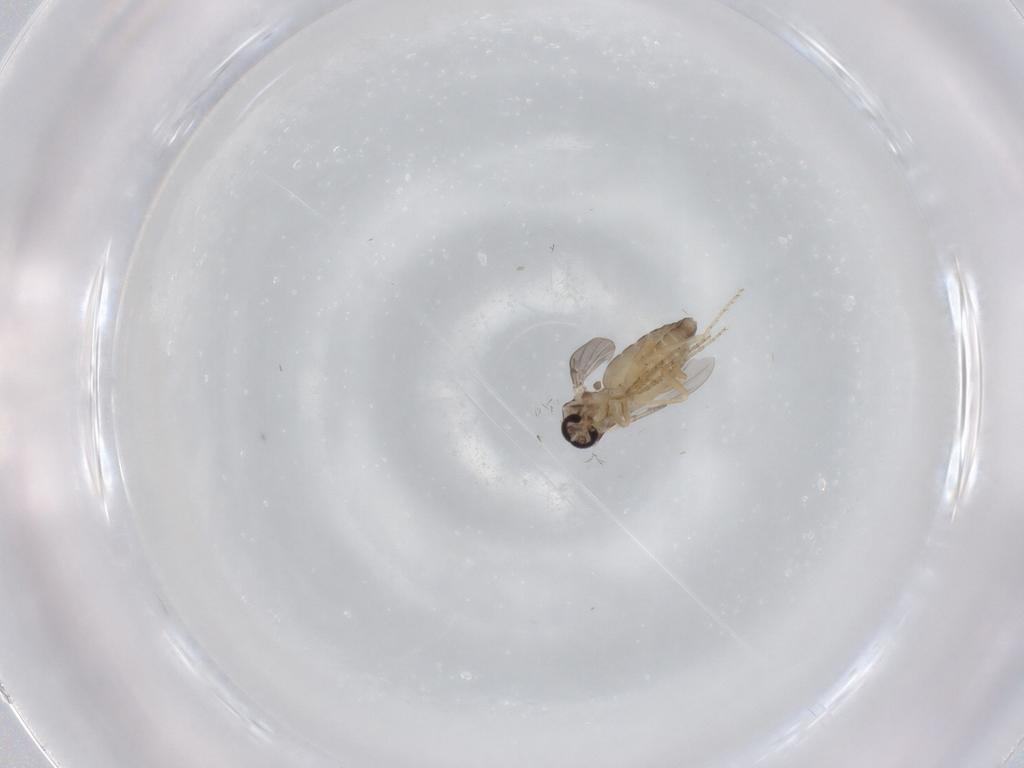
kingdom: Animalia
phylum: Arthropoda
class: Insecta
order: Diptera
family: Ceratopogonidae
